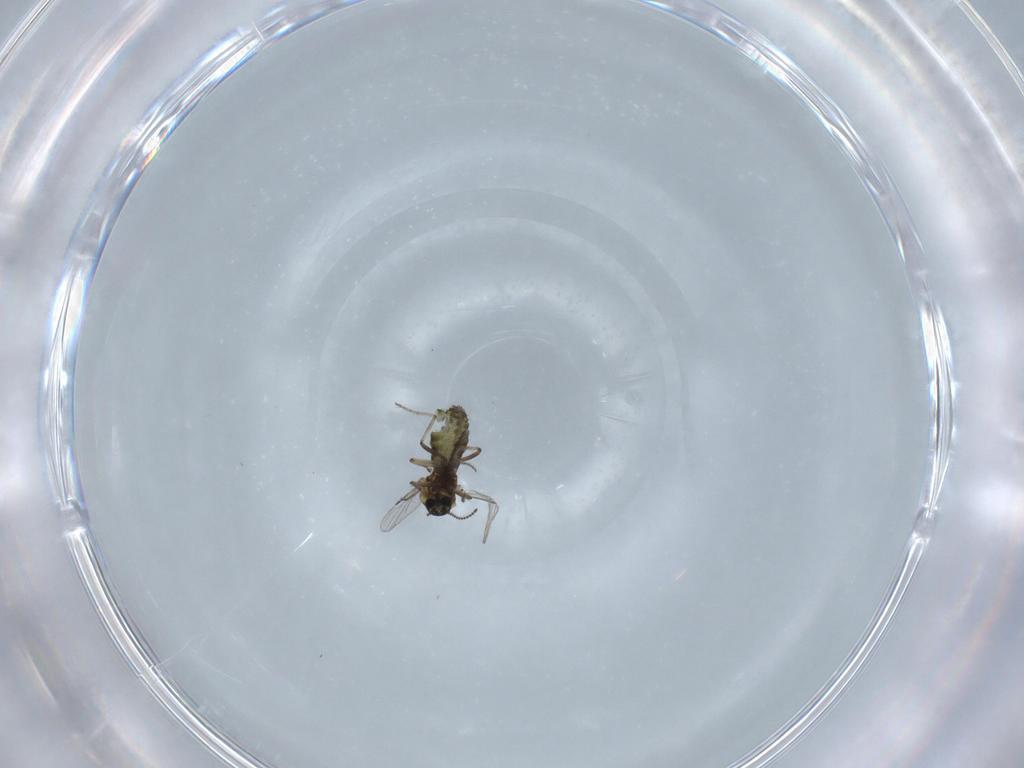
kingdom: Animalia
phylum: Arthropoda
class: Insecta
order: Diptera
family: Ceratopogonidae
